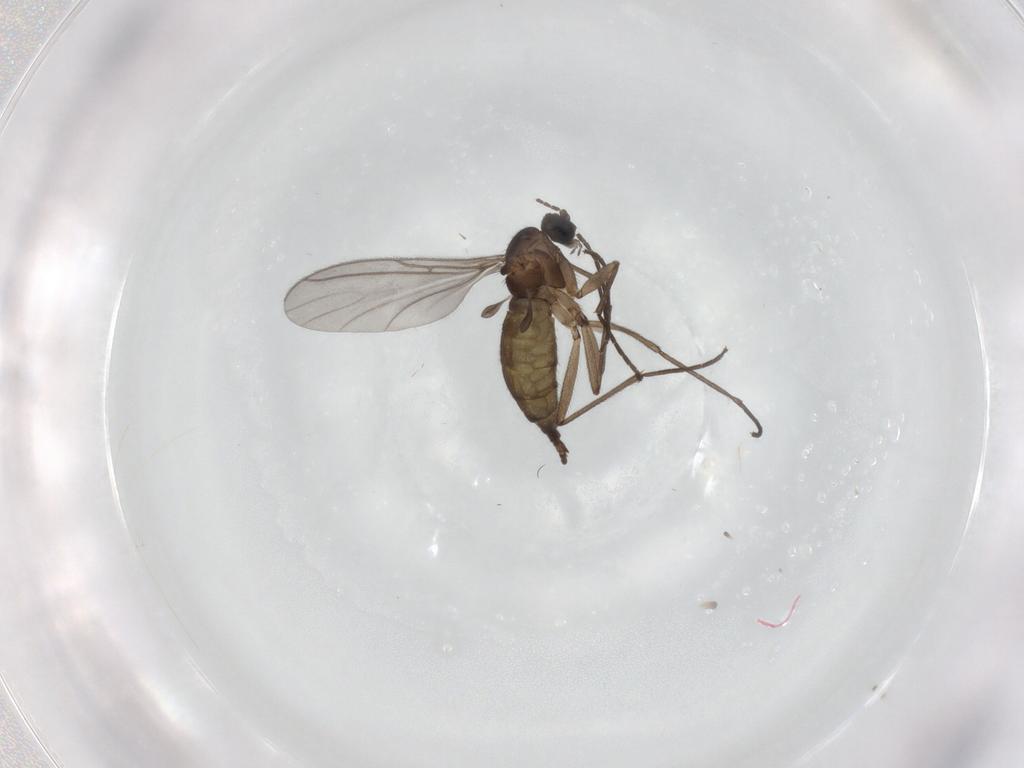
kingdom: Animalia
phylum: Arthropoda
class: Insecta
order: Diptera
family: Sciaridae
